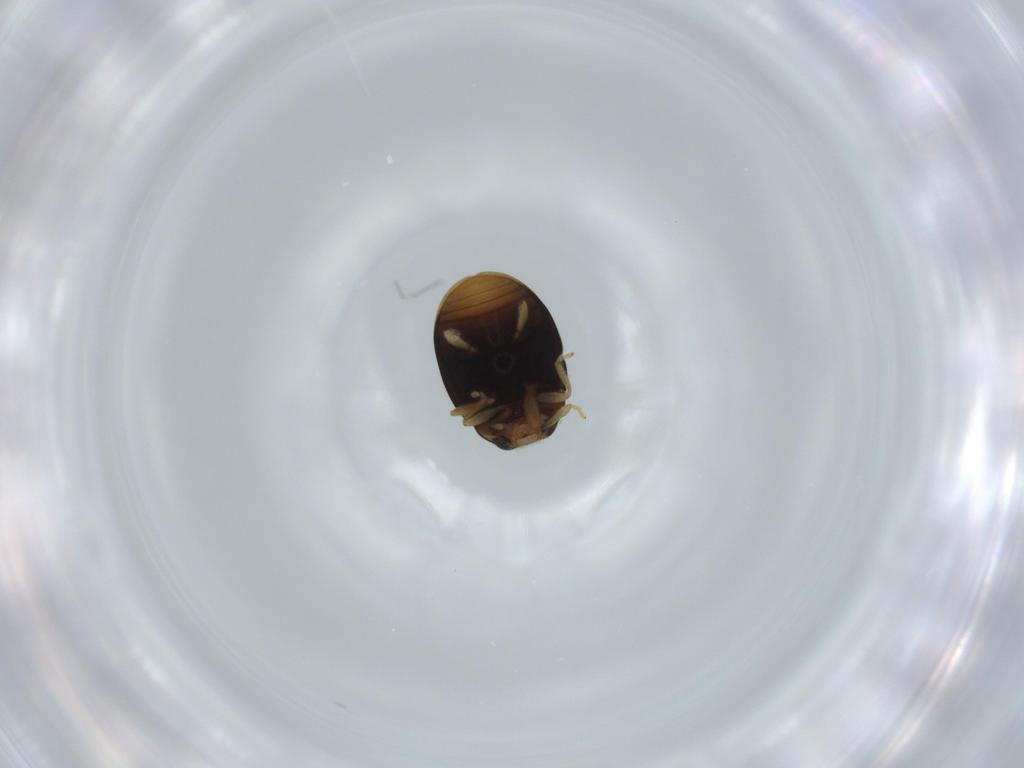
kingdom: Animalia
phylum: Arthropoda
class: Insecta
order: Coleoptera
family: Coccinellidae
